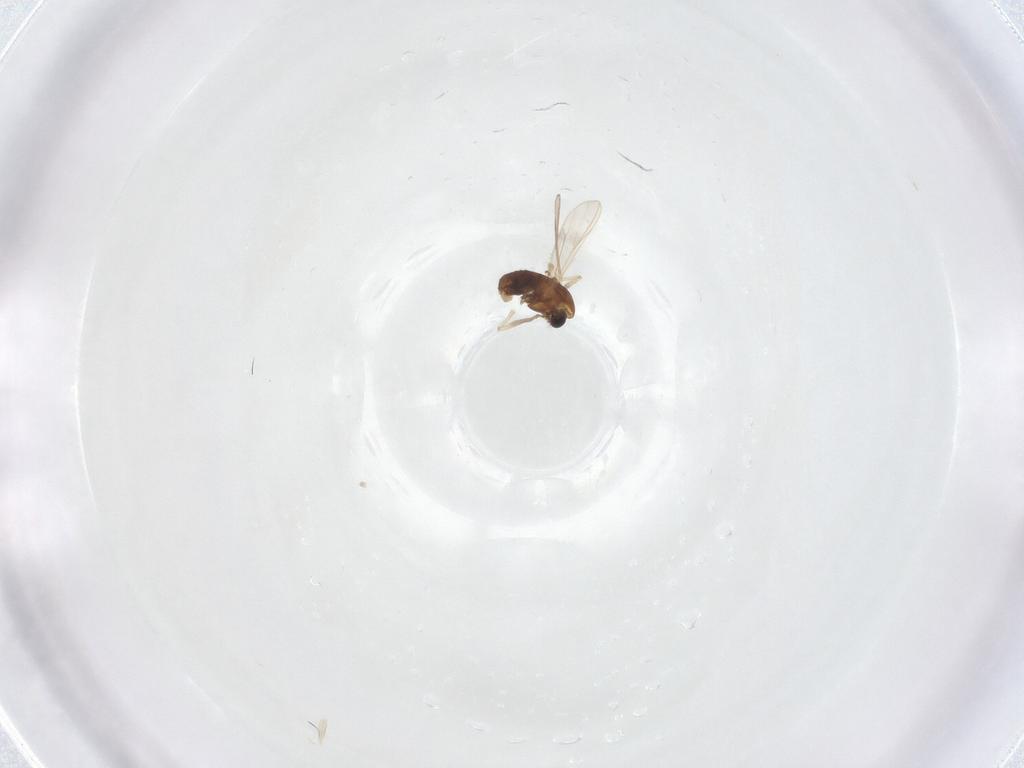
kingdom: Animalia
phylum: Arthropoda
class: Insecta
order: Diptera
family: Chironomidae
